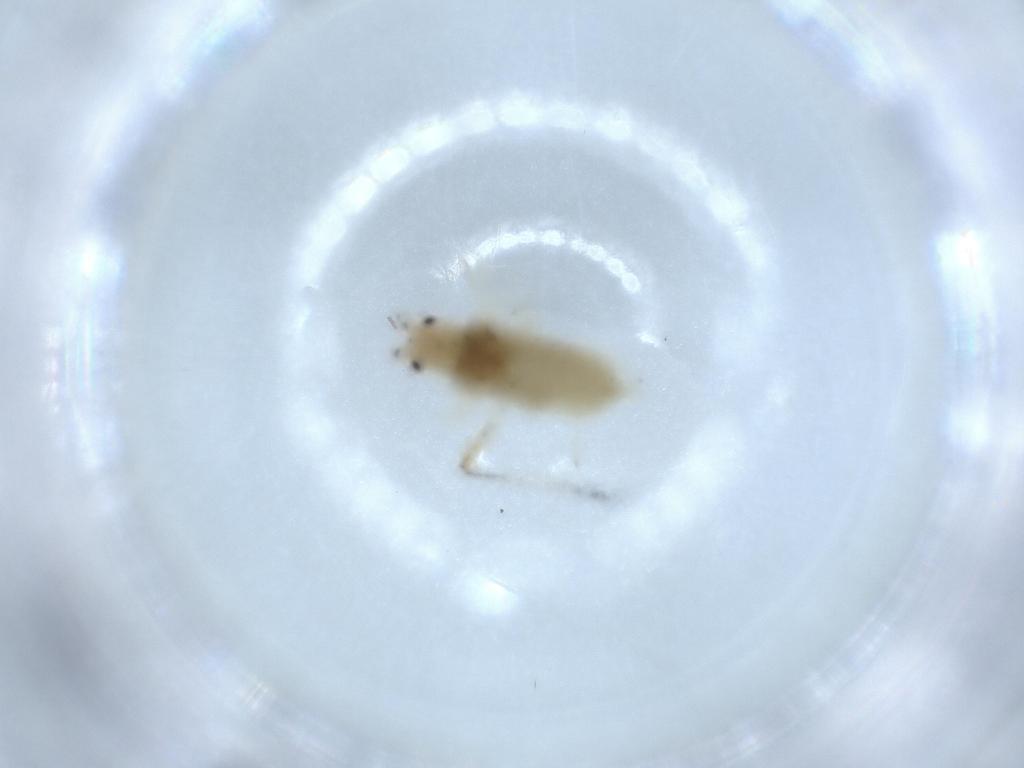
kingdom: Animalia
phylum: Arthropoda
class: Insecta
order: Hemiptera
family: Aphididae
